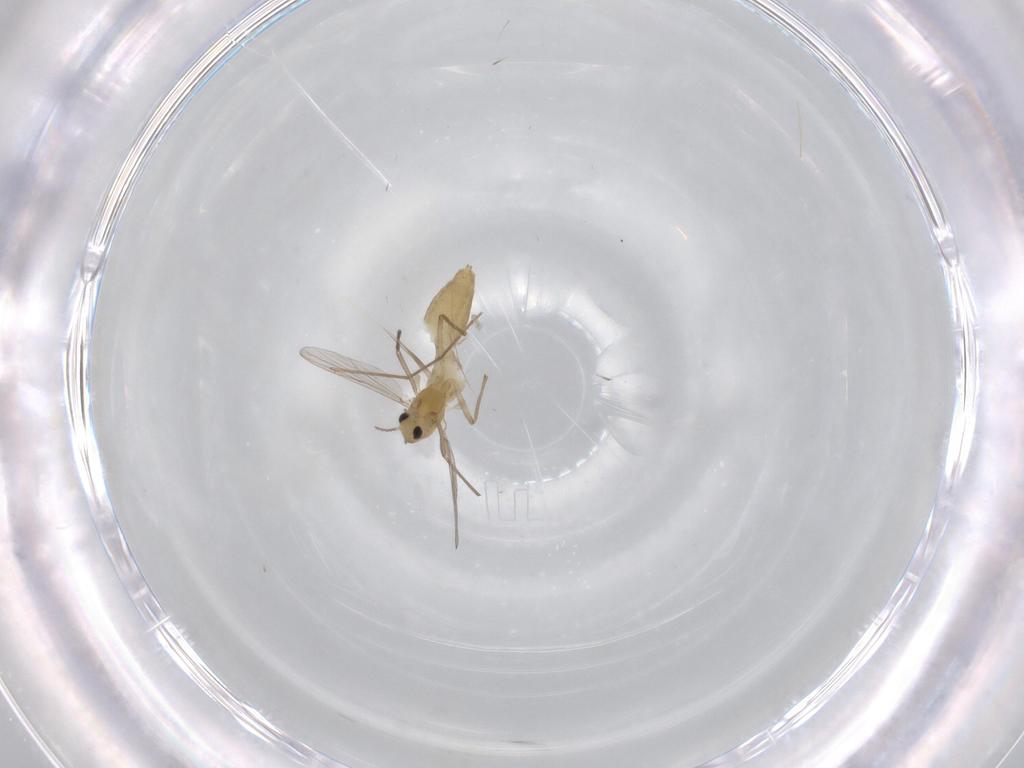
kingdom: Animalia
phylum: Arthropoda
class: Insecta
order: Diptera
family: Chironomidae
